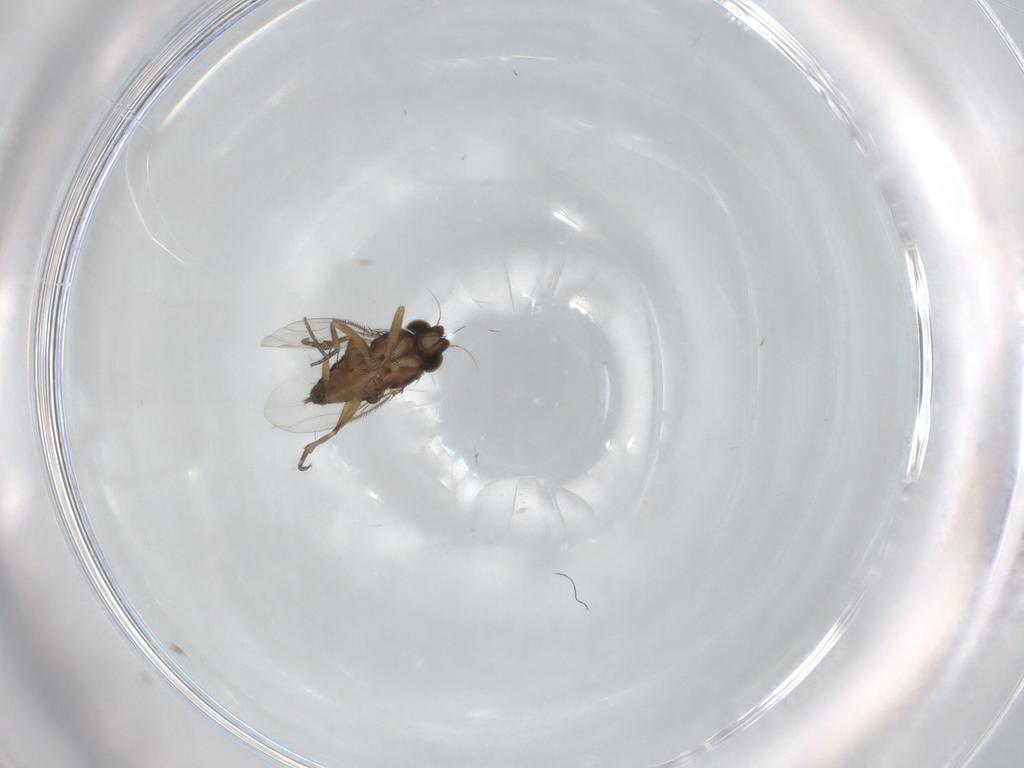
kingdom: Animalia
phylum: Arthropoda
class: Insecta
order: Diptera
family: Phoridae
